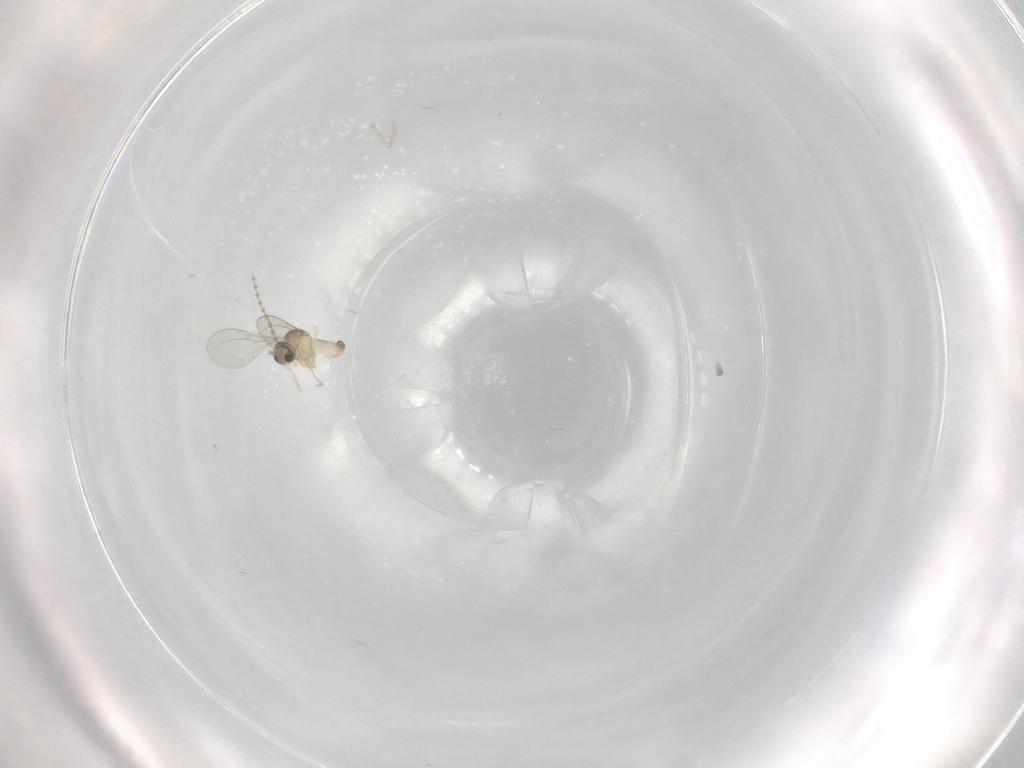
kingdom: Animalia
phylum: Arthropoda
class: Insecta
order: Diptera
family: Cecidomyiidae
